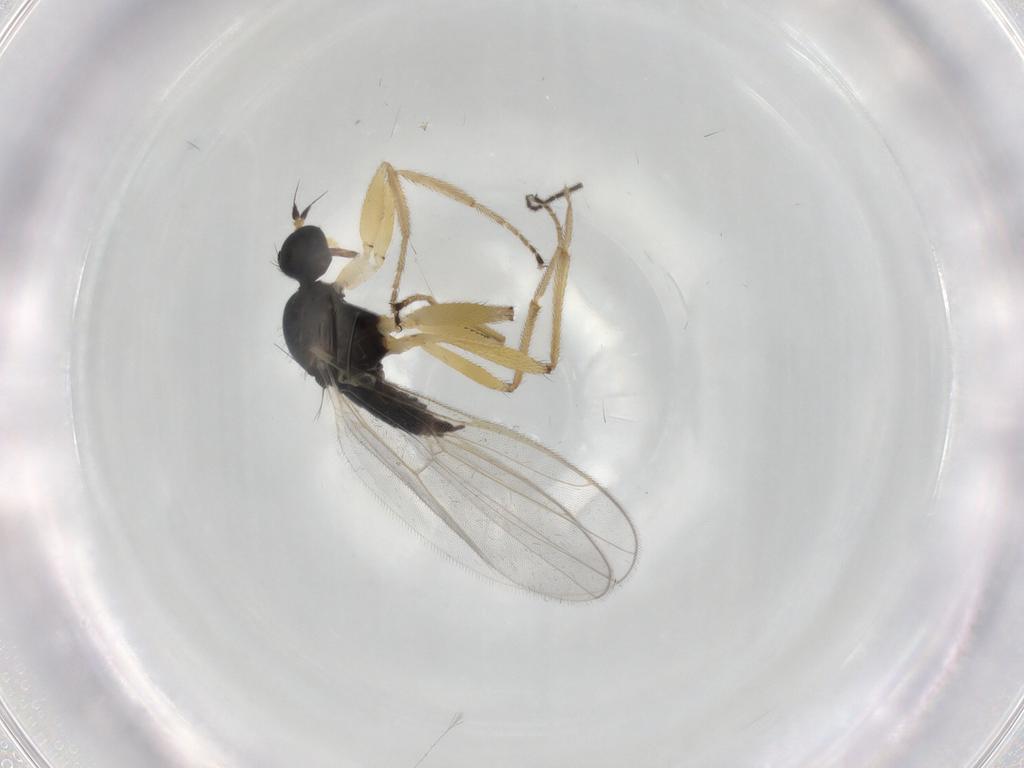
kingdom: Animalia
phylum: Arthropoda
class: Insecta
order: Diptera
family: Hybotidae
